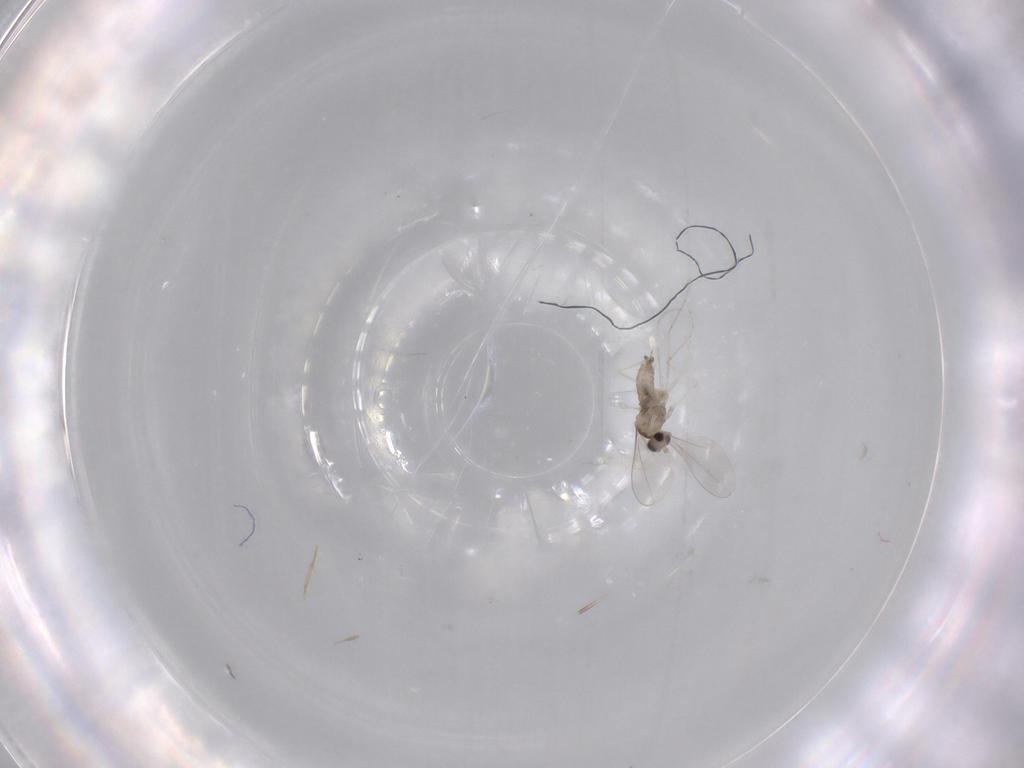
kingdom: Animalia
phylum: Arthropoda
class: Insecta
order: Diptera
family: Cecidomyiidae
